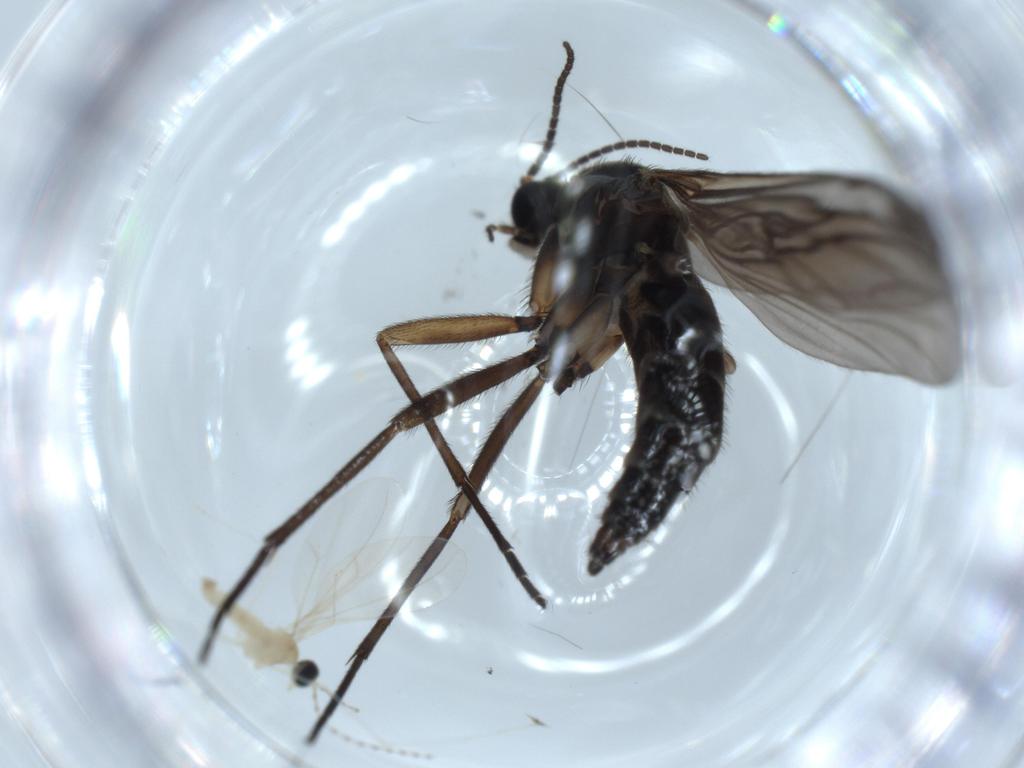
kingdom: Animalia
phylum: Arthropoda
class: Insecta
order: Diptera
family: Sciaridae
